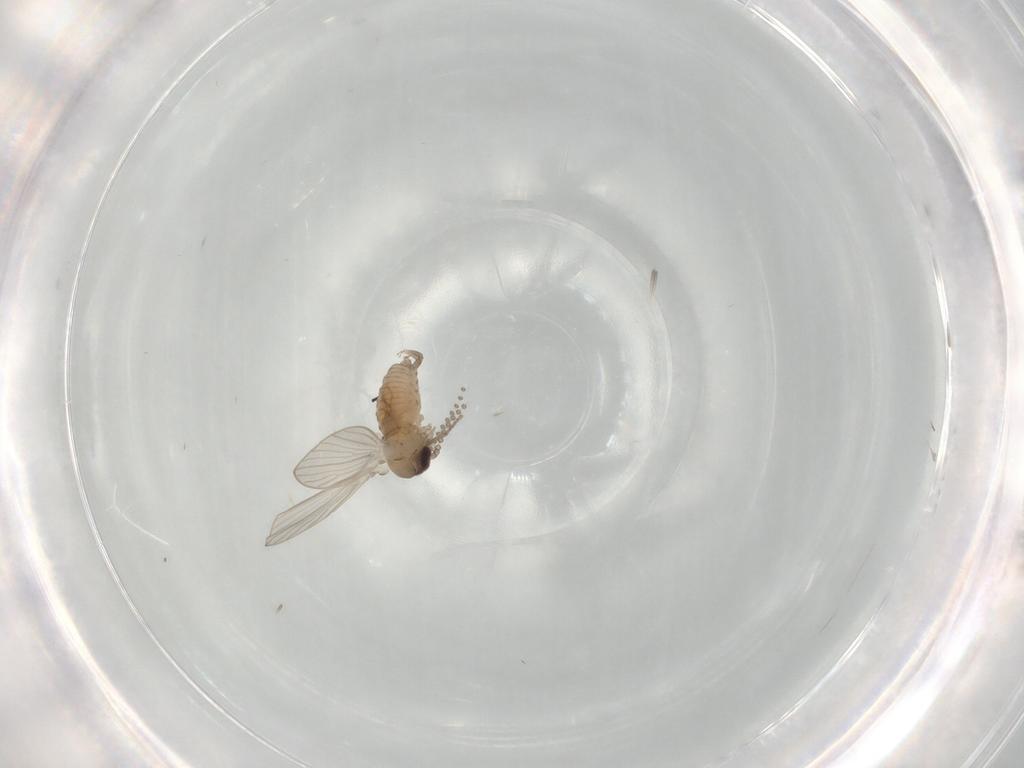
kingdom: Animalia
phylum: Arthropoda
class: Insecta
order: Diptera
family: Psychodidae
